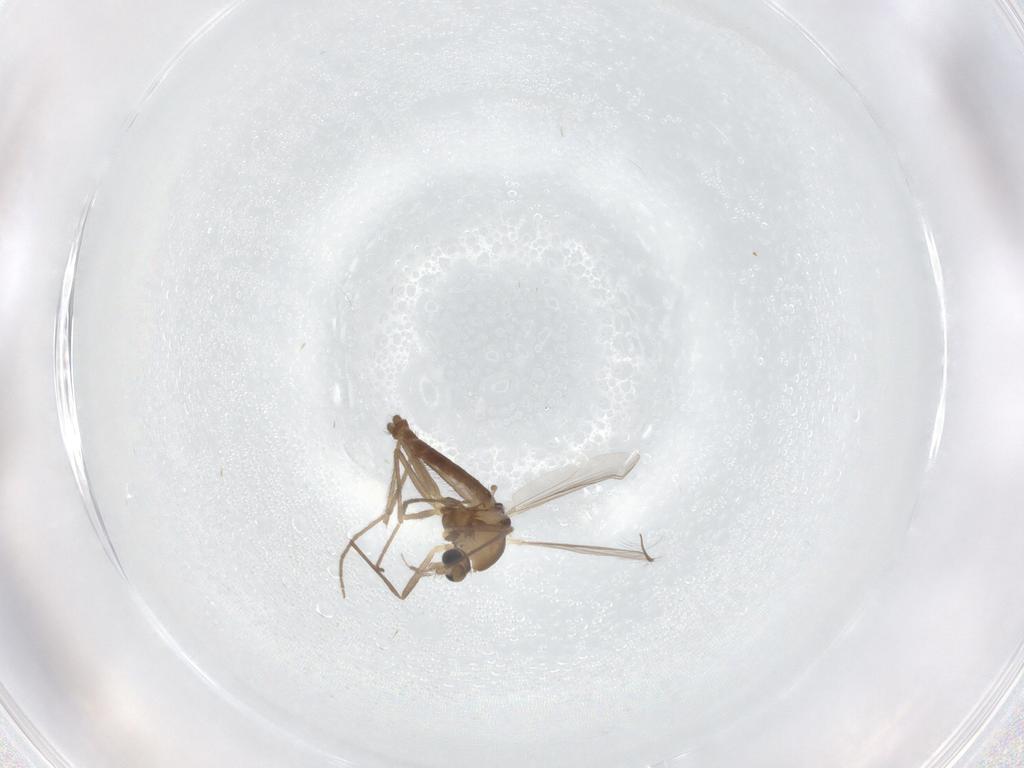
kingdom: Animalia
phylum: Arthropoda
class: Insecta
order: Diptera
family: Chironomidae
